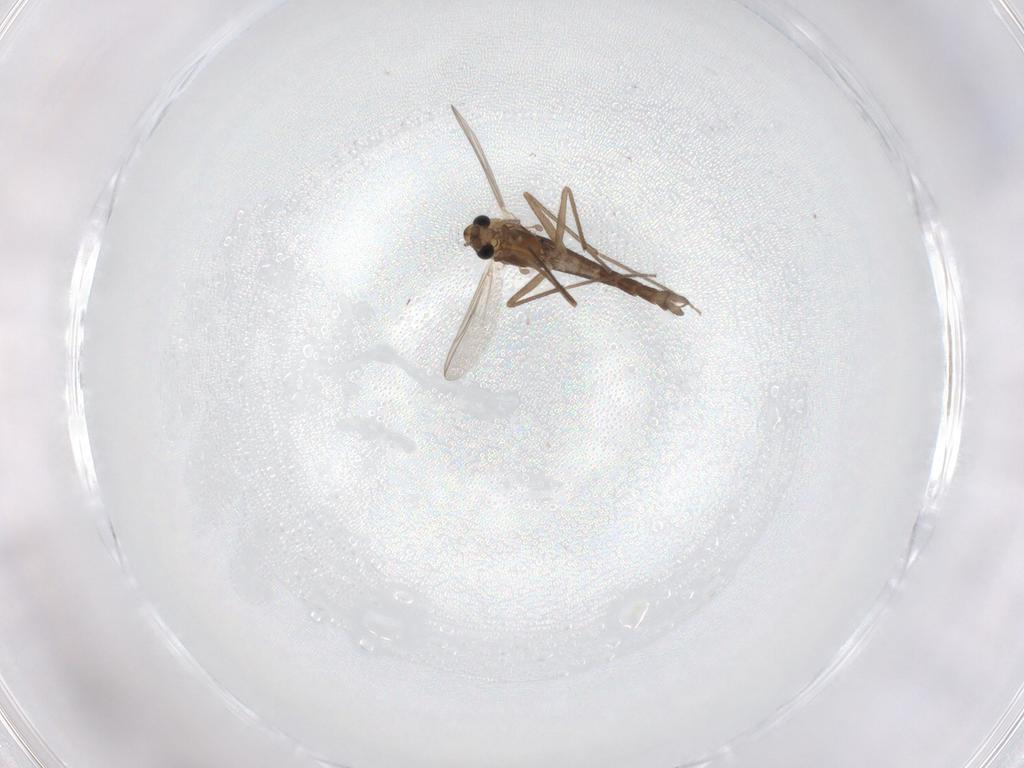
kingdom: Animalia
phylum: Arthropoda
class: Insecta
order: Diptera
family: Chironomidae
